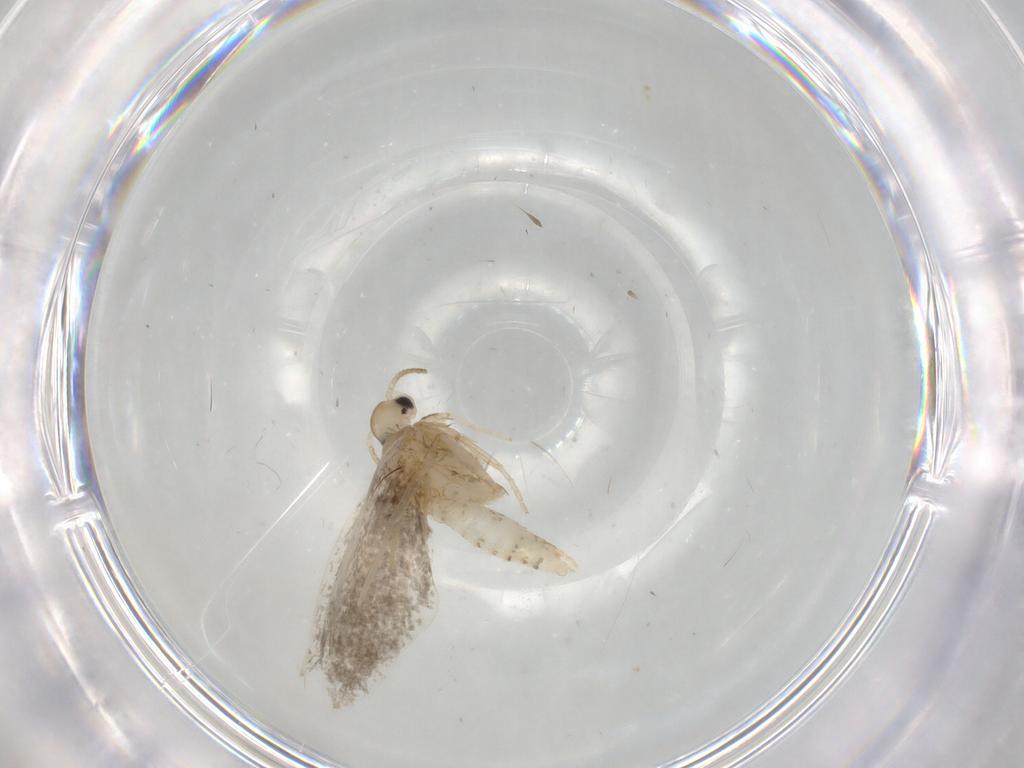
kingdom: Animalia
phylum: Arthropoda
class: Insecta
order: Lepidoptera
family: Psychidae
